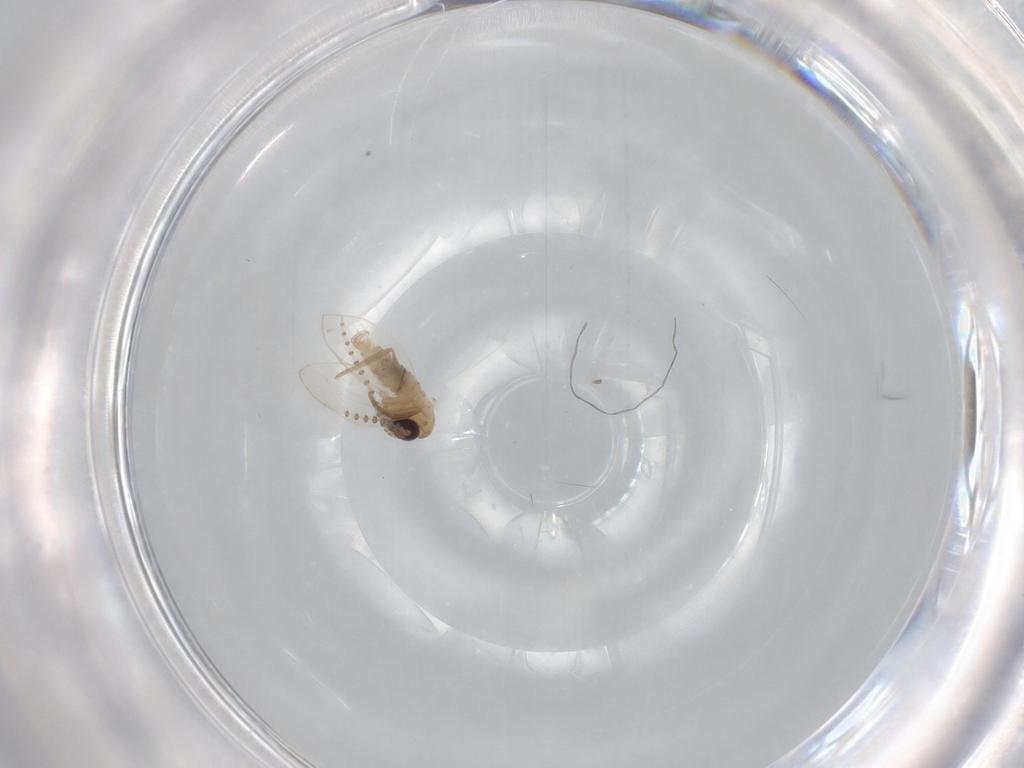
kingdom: Animalia
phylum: Arthropoda
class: Insecta
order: Diptera
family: Psychodidae
